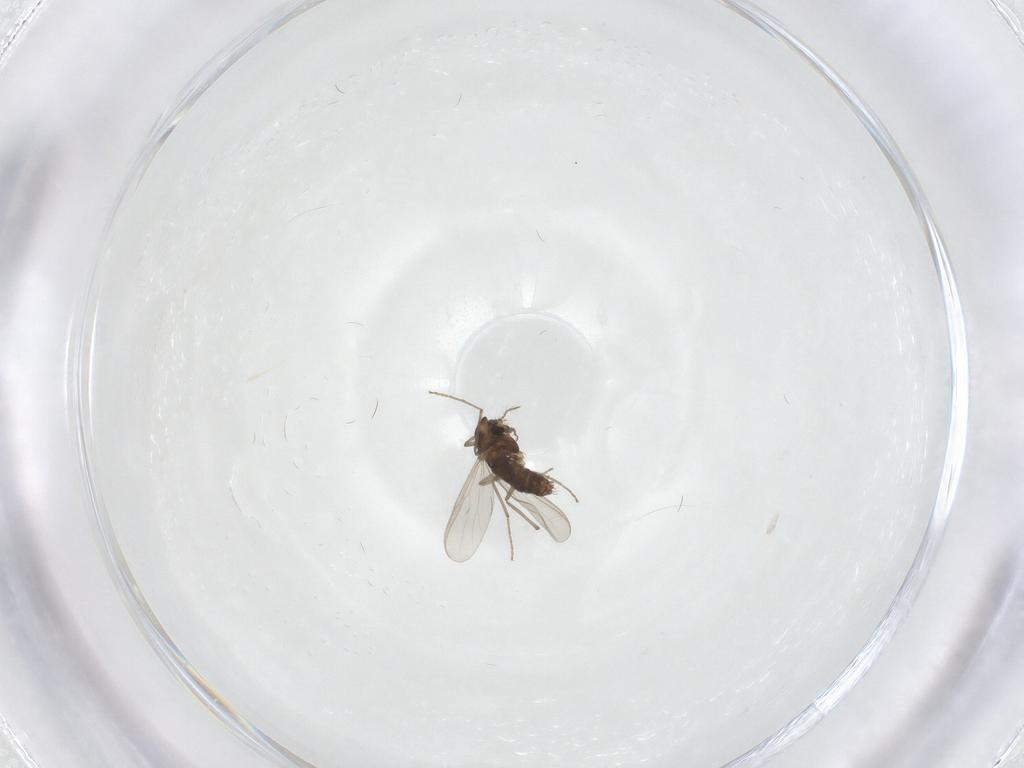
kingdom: Animalia
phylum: Arthropoda
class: Insecta
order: Diptera
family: Chironomidae
